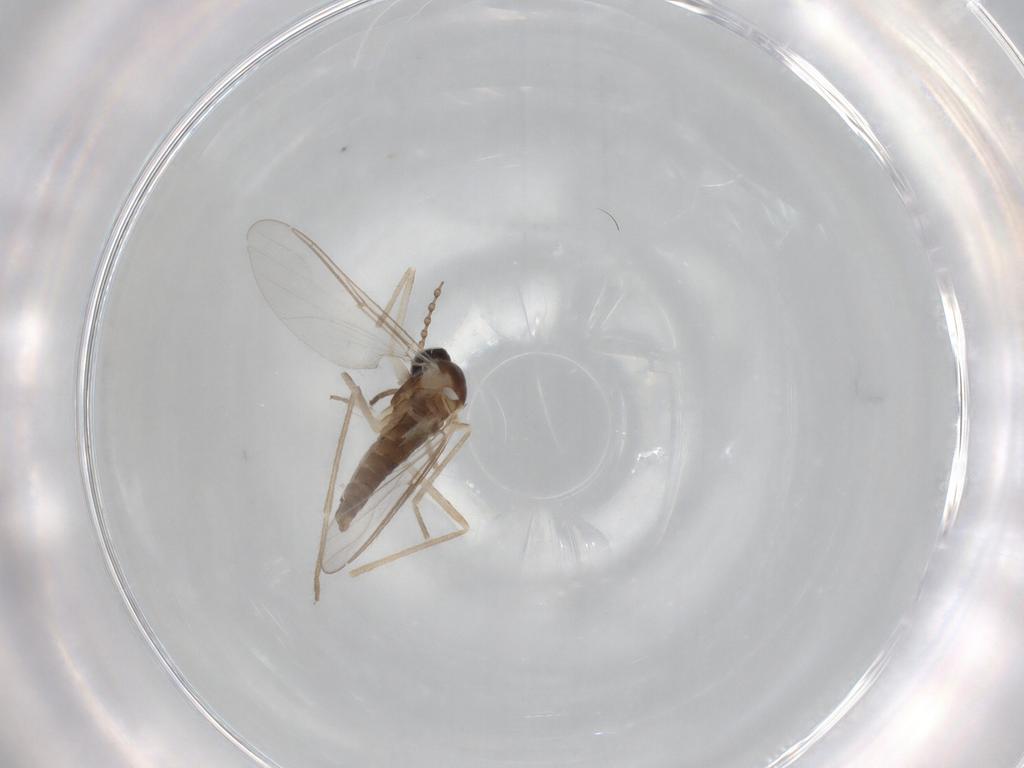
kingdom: Animalia
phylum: Arthropoda
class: Insecta
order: Diptera
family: Cecidomyiidae
